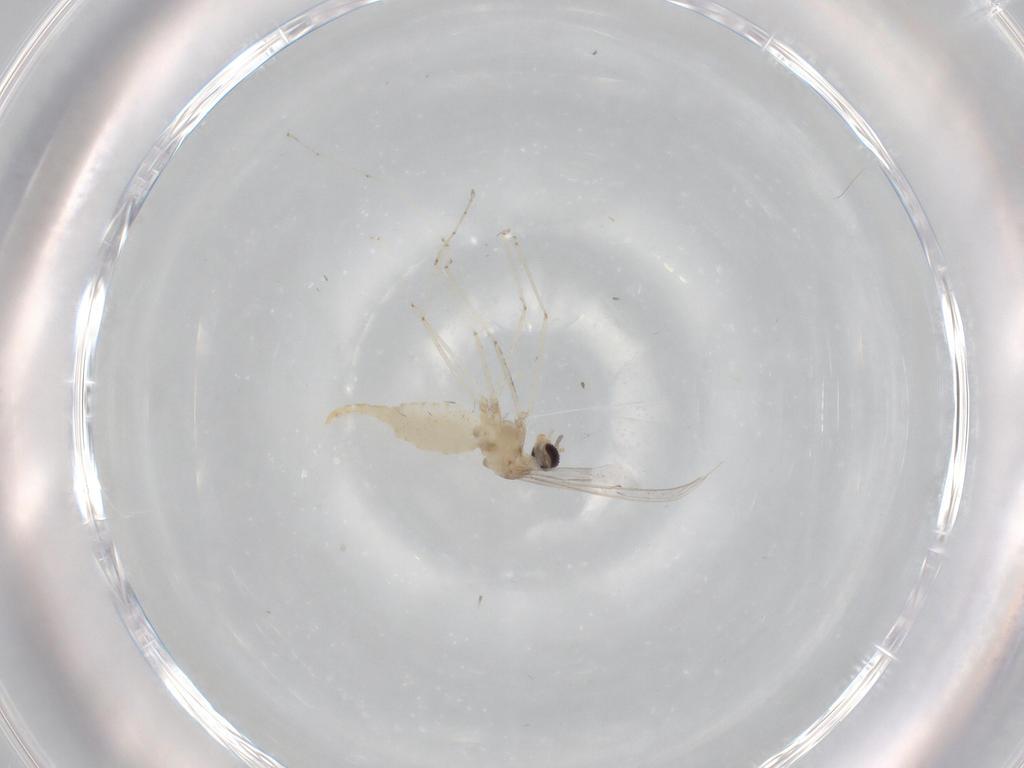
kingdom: Animalia
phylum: Arthropoda
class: Insecta
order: Diptera
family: Cecidomyiidae
